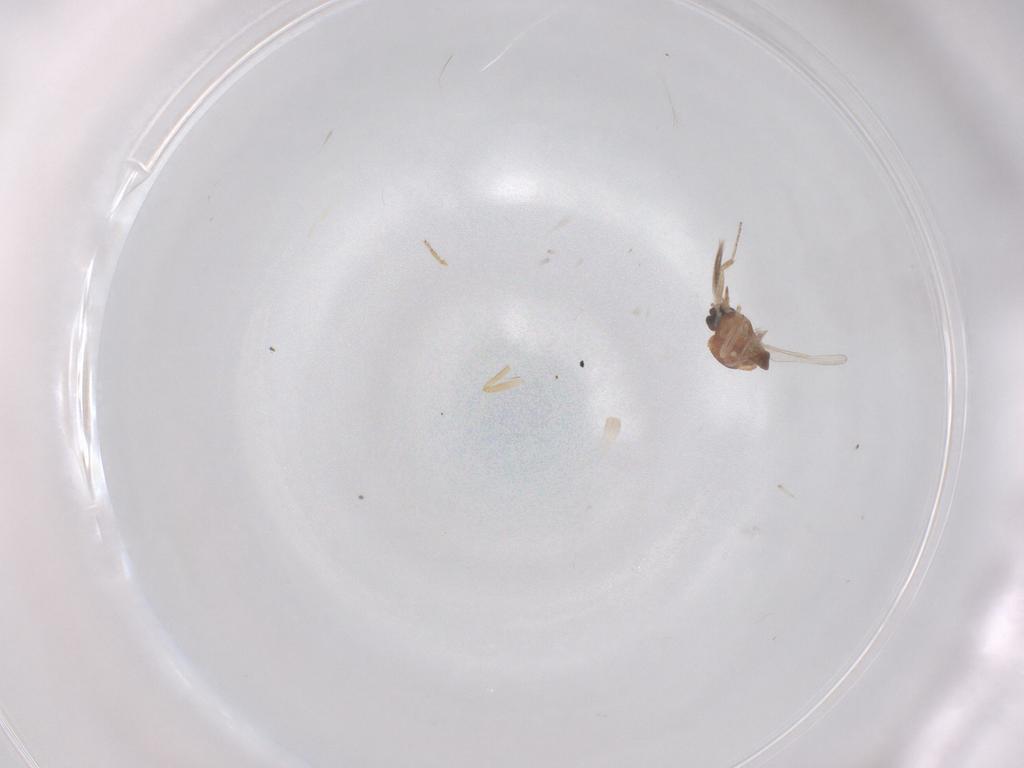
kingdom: Animalia
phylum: Arthropoda
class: Insecta
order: Diptera
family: Ceratopogonidae
